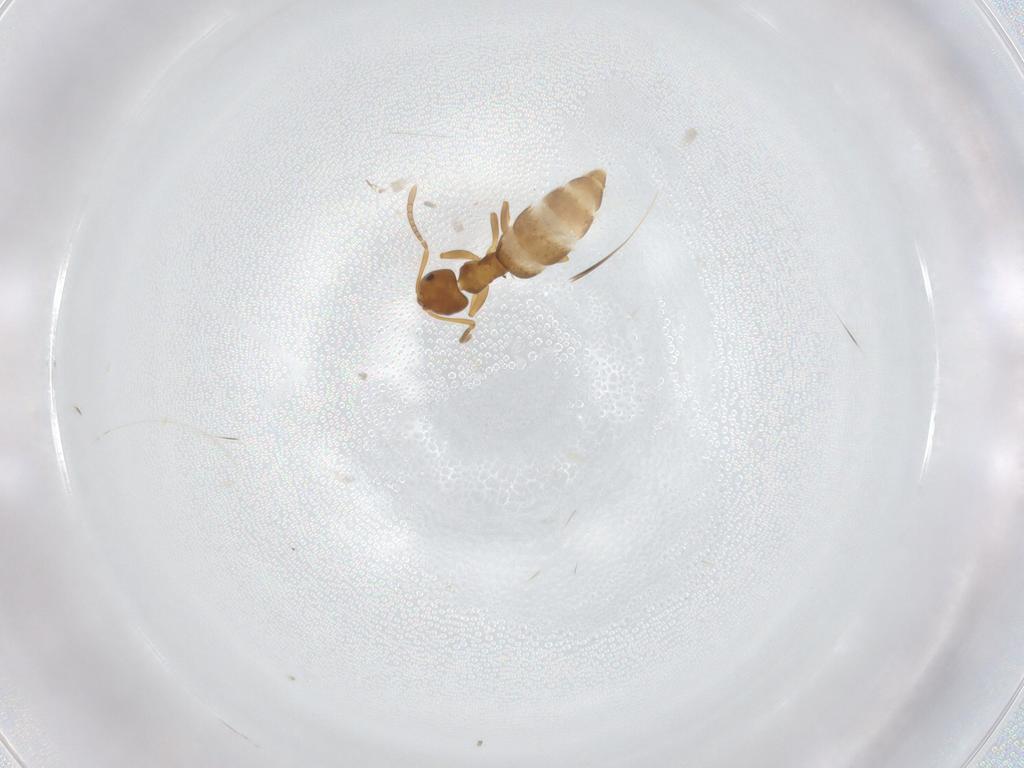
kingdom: Animalia
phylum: Arthropoda
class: Insecta
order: Hymenoptera
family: Formicidae
